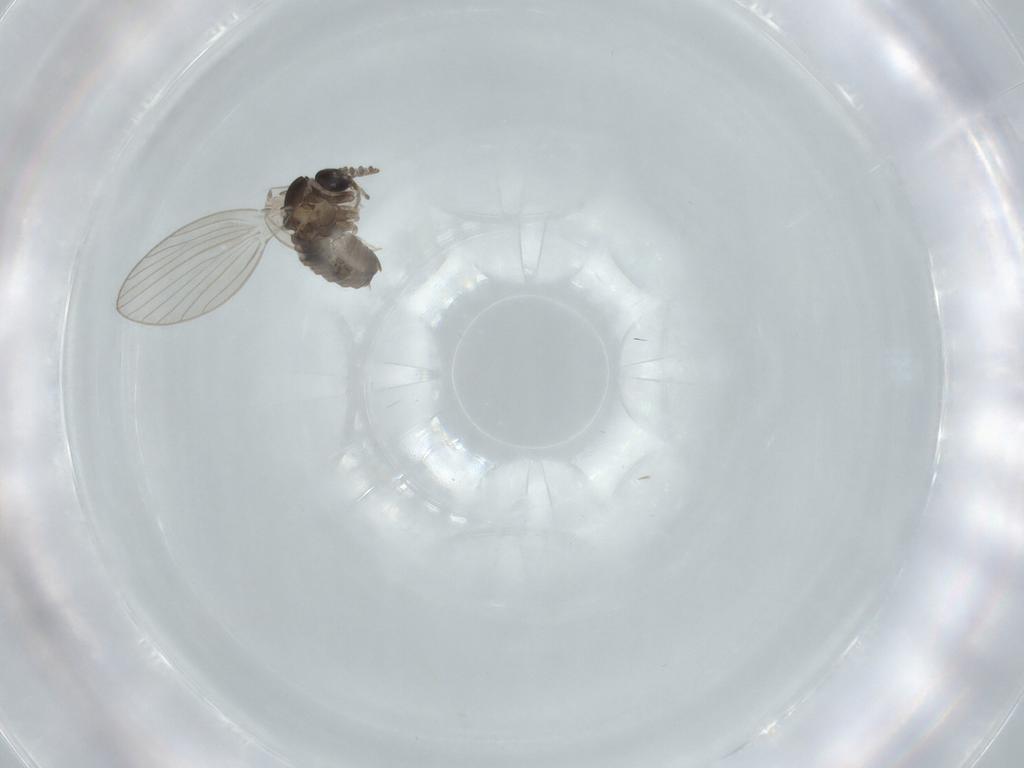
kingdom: Animalia
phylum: Arthropoda
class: Insecta
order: Diptera
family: Psychodidae
